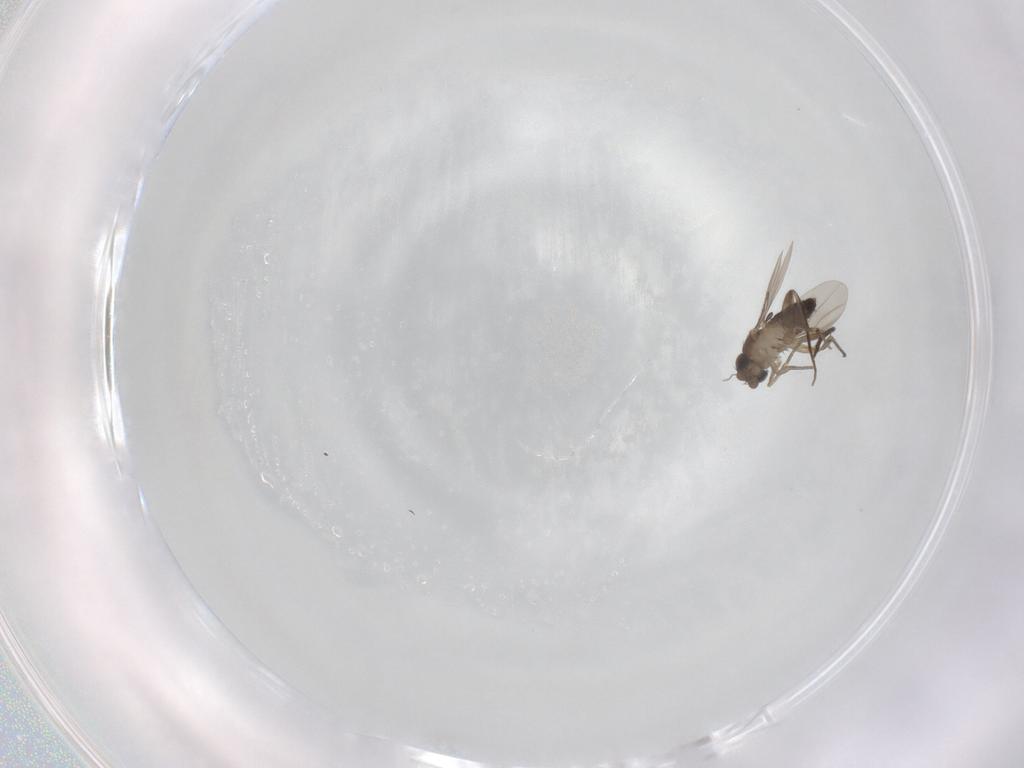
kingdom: Animalia
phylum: Arthropoda
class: Insecta
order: Diptera
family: Phoridae
